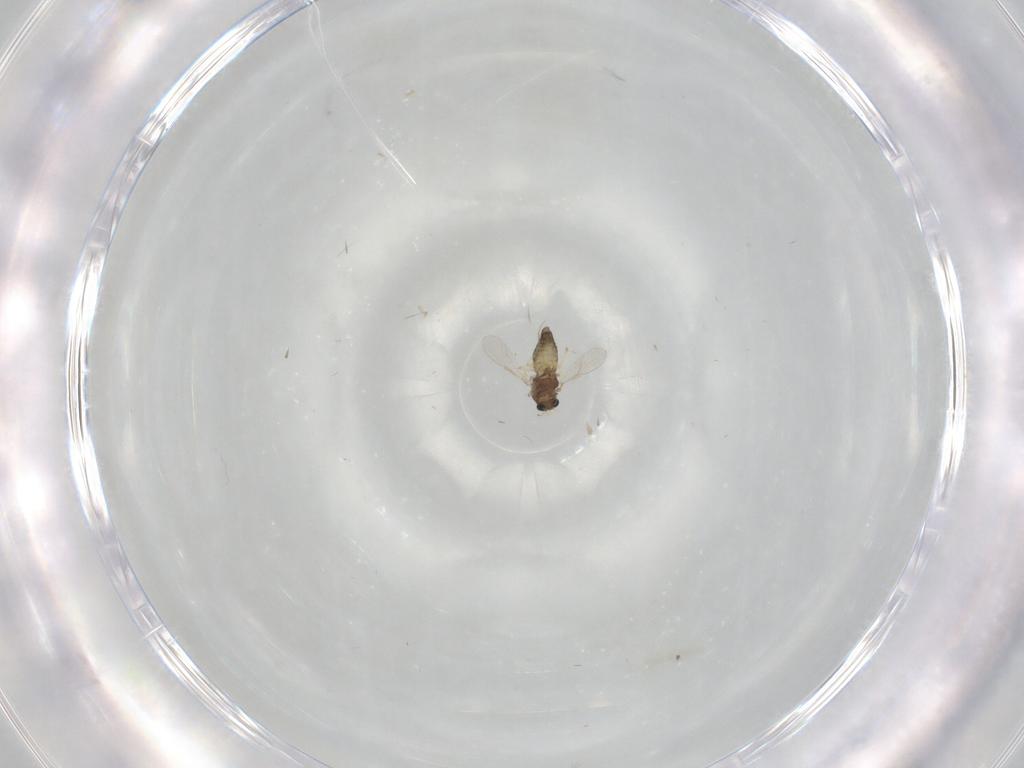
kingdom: Animalia
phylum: Arthropoda
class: Insecta
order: Diptera
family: Chironomidae
